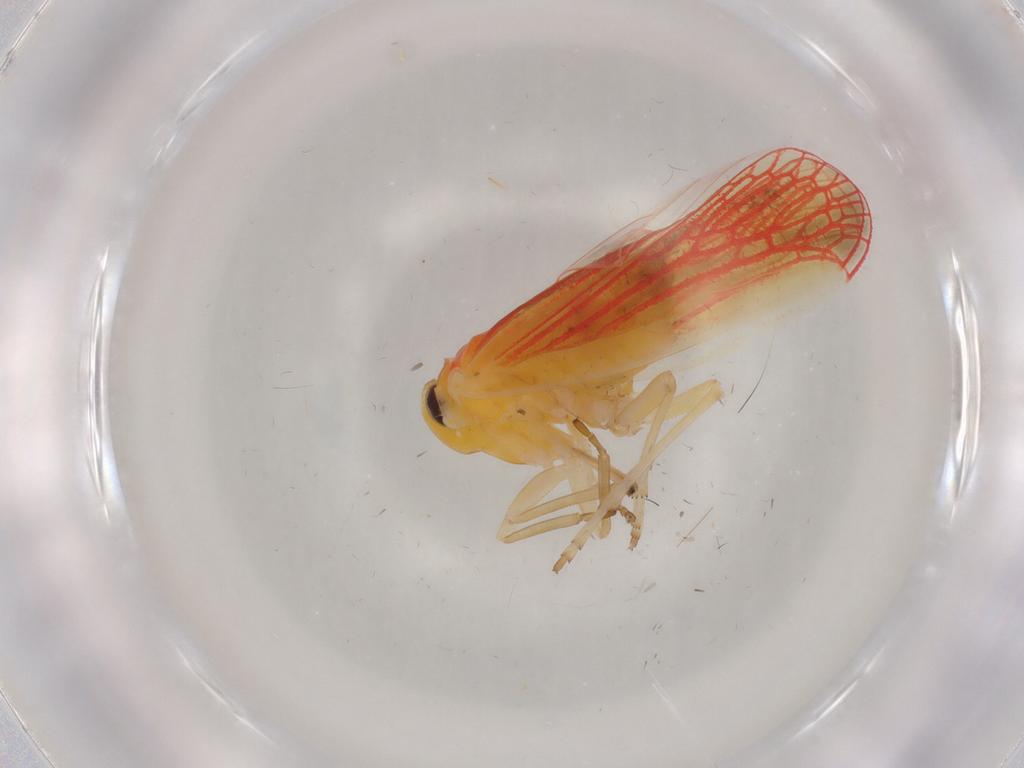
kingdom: Animalia
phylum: Arthropoda
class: Insecta
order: Hemiptera
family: Derbidae
